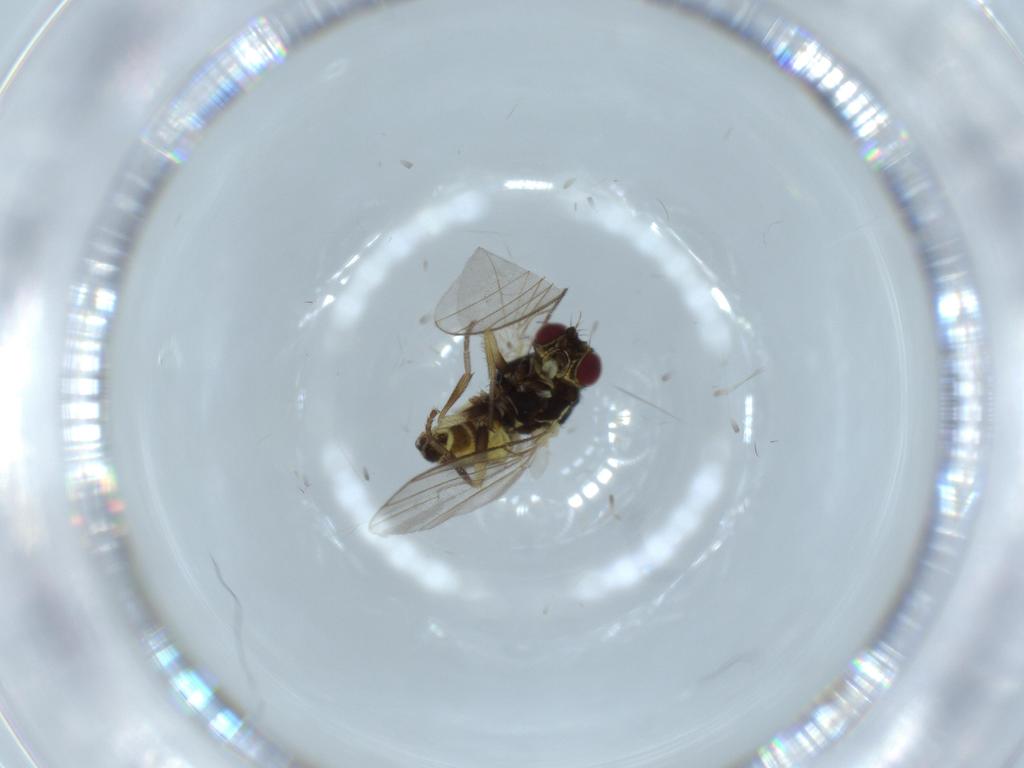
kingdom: Animalia
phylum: Arthropoda
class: Insecta
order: Diptera
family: Agromyzidae
